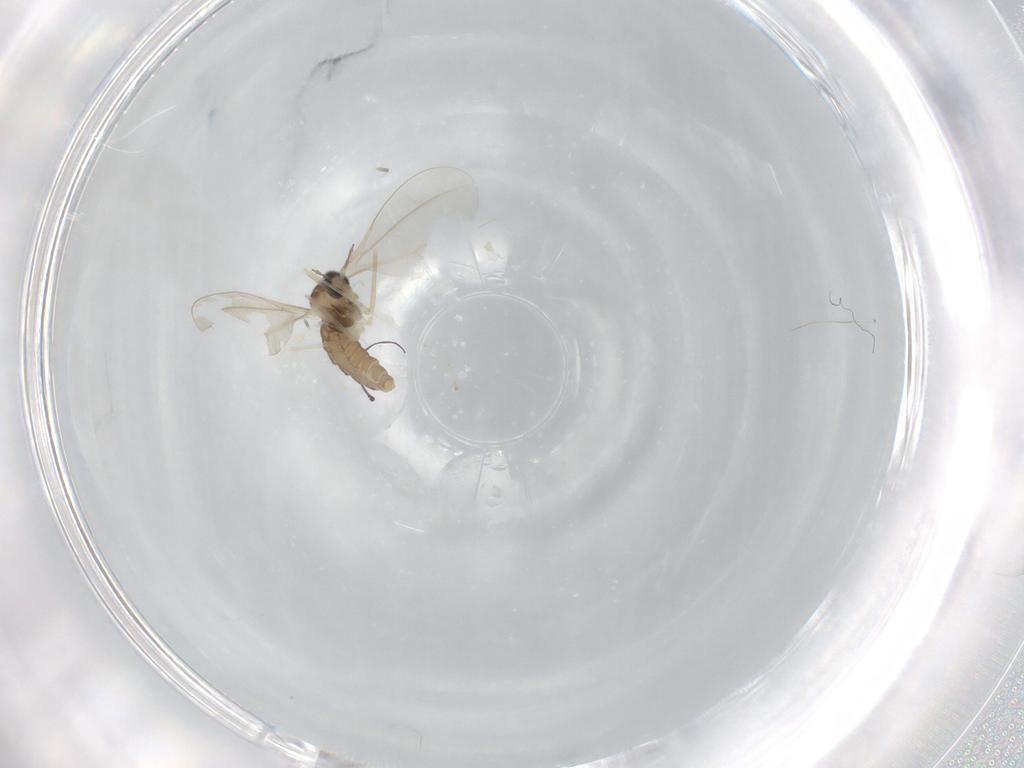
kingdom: Animalia
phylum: Arthropoda
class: Insecta
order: Diptera
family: Cecidomyiidae
